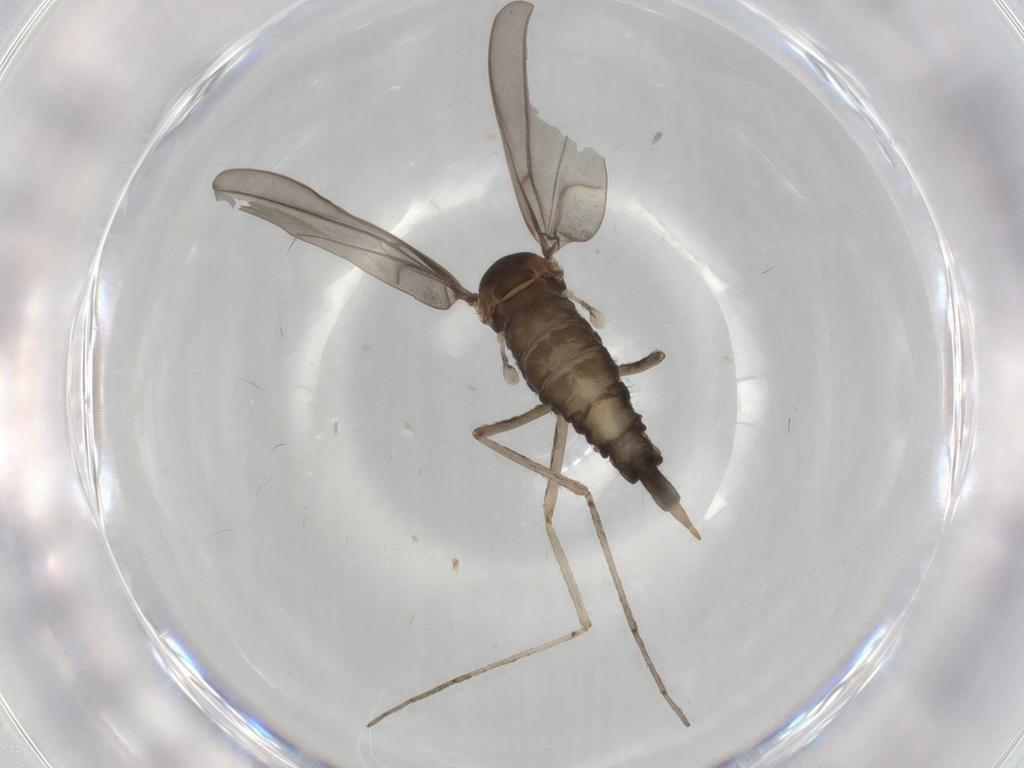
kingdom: Animalia
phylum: Arthropoda
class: Insecta
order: Diptera
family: Cecidomyiidae
